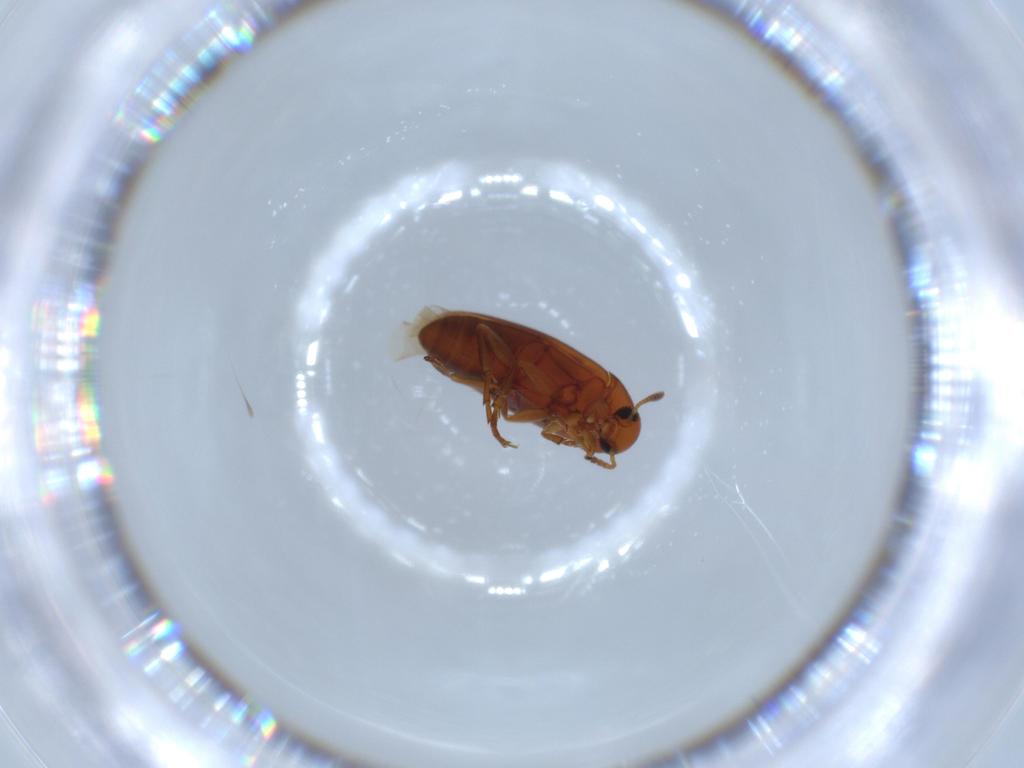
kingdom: Animalia
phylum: Arthropoda
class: Insecta
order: Coleoptera
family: Scraptiidae
